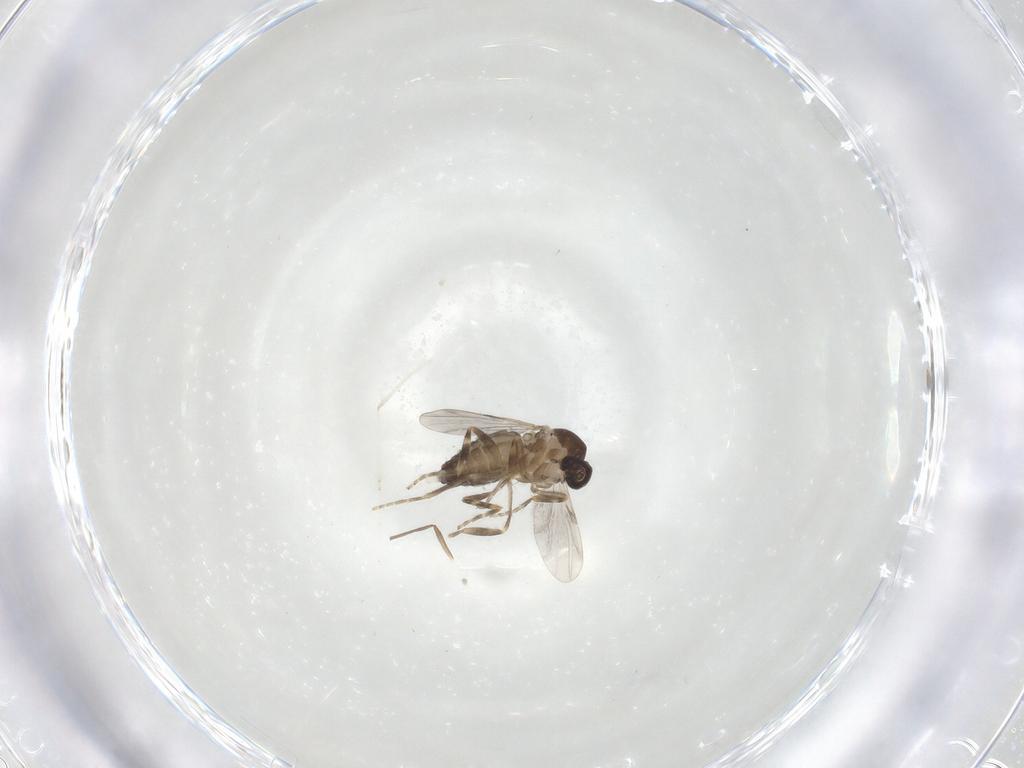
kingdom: Animalia
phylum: Arthropoda
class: Insecta
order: Diptera
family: Ceratopogonidae
